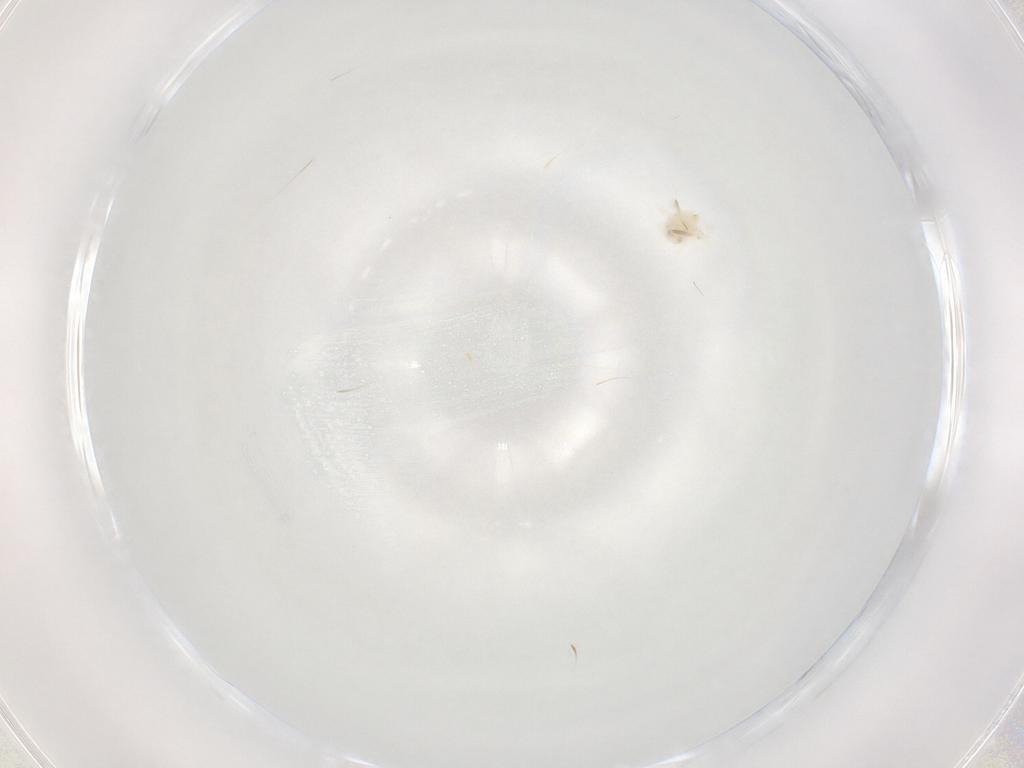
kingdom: Animalia
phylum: Arthropoda
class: Arachnida
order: Trombidiformes
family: Anystidae
